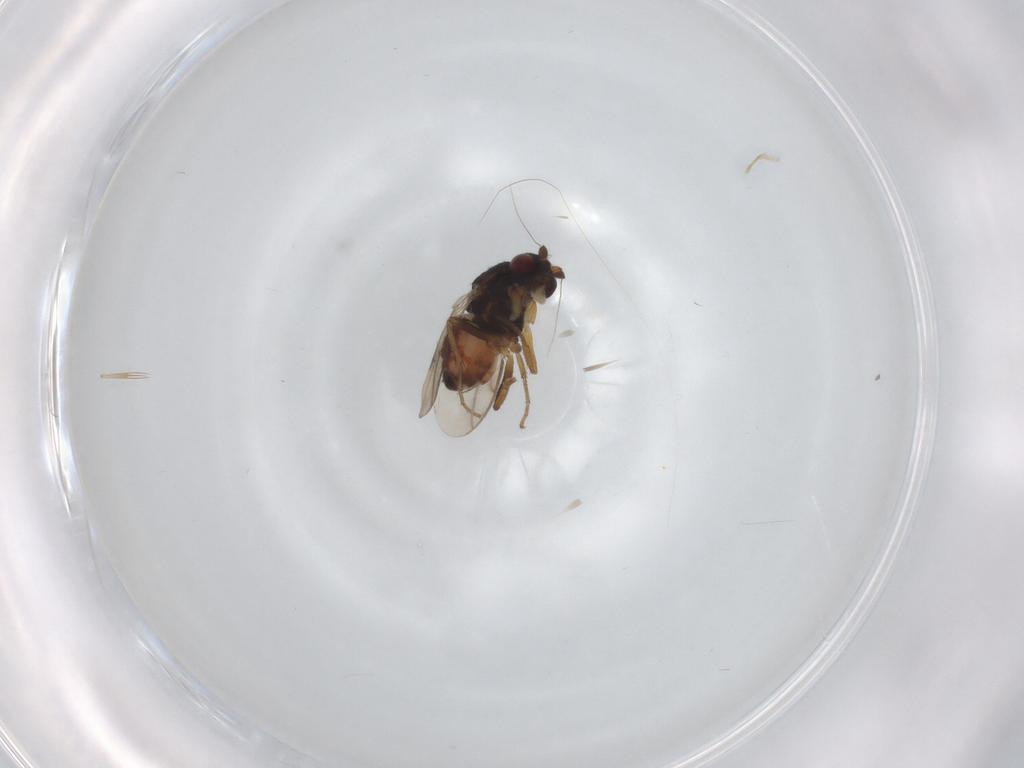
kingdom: Animalia
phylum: Arthropoda
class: Insecta
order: Diptera
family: Sphaeroceridae
